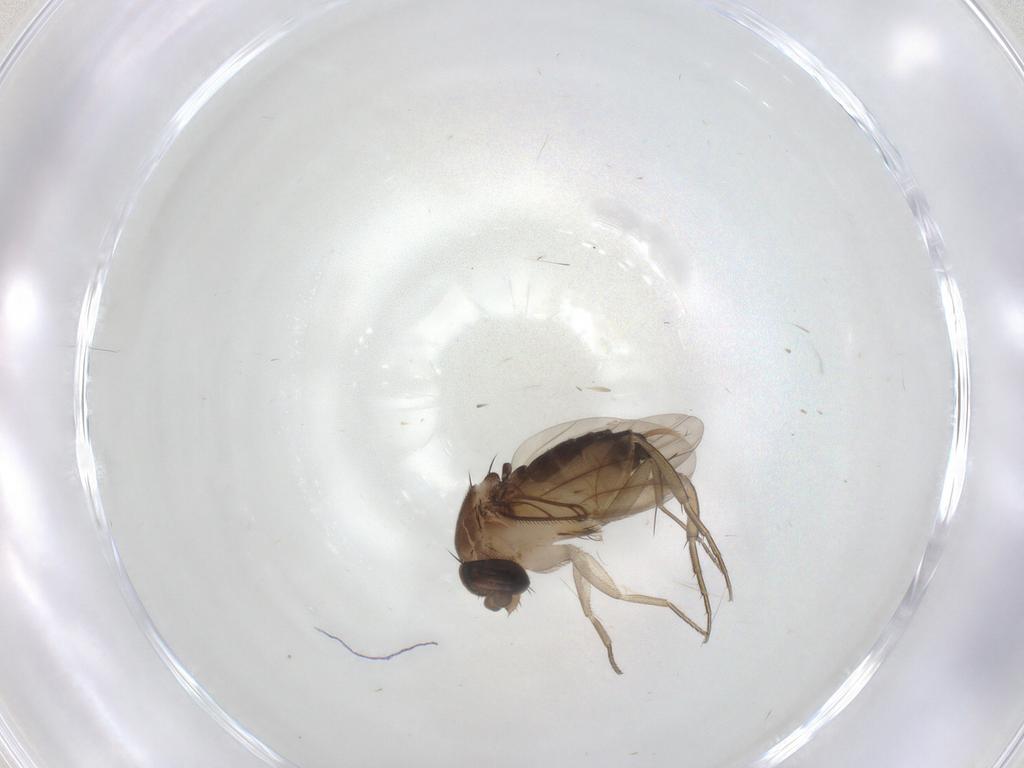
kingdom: Animalia
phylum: Arthropoda
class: Insecta
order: Diptera
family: Phoridae
